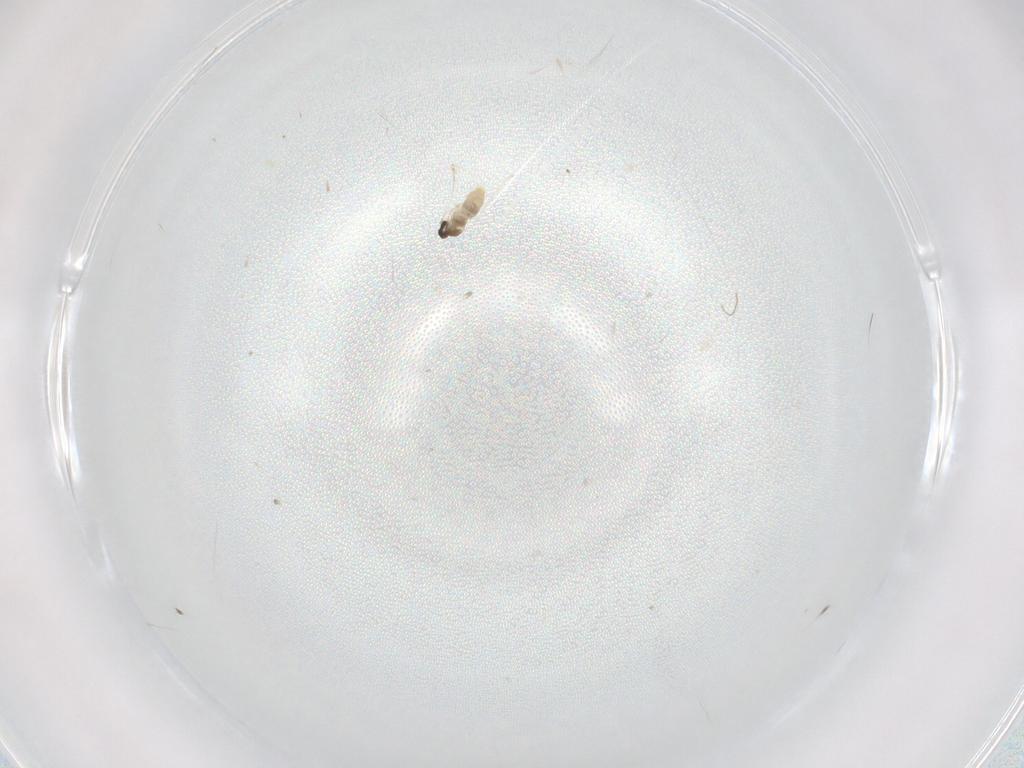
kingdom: Animalia
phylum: Arthropoda
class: Insecta
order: Diptera
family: Cecidomyiidae
